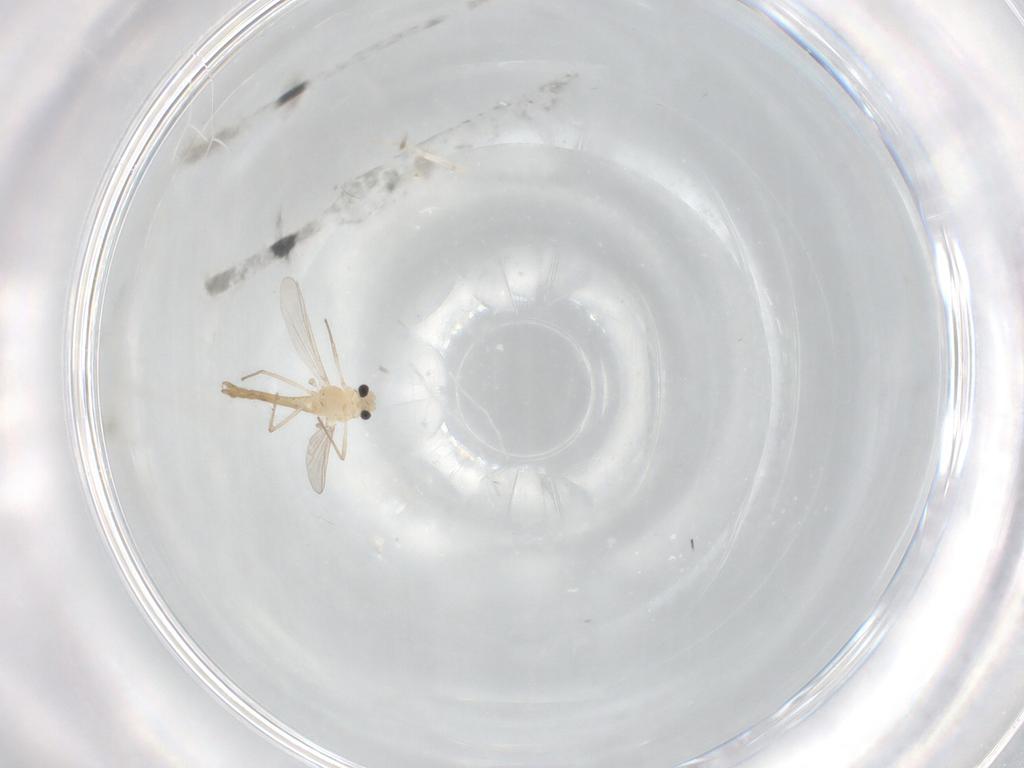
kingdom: Animalia
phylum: Arthropoda
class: Insecta
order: Diptera
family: Chironomidae
